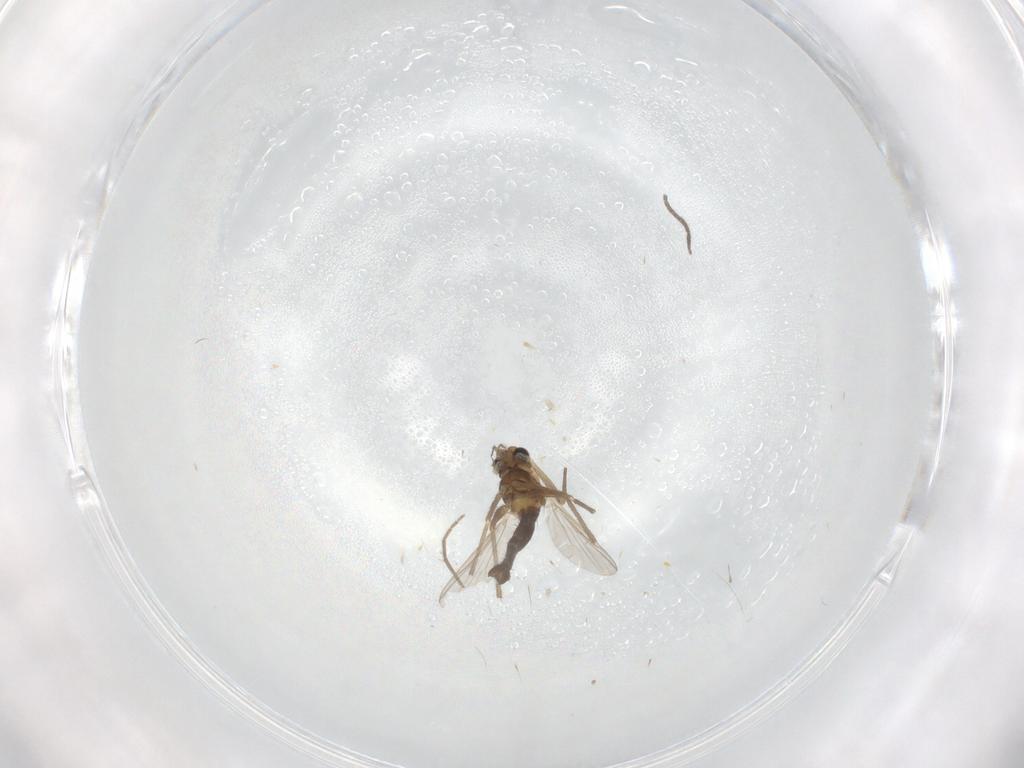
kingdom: Animalia
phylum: Arthropoda
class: Insecta
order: Diptera
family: Chironomidae
